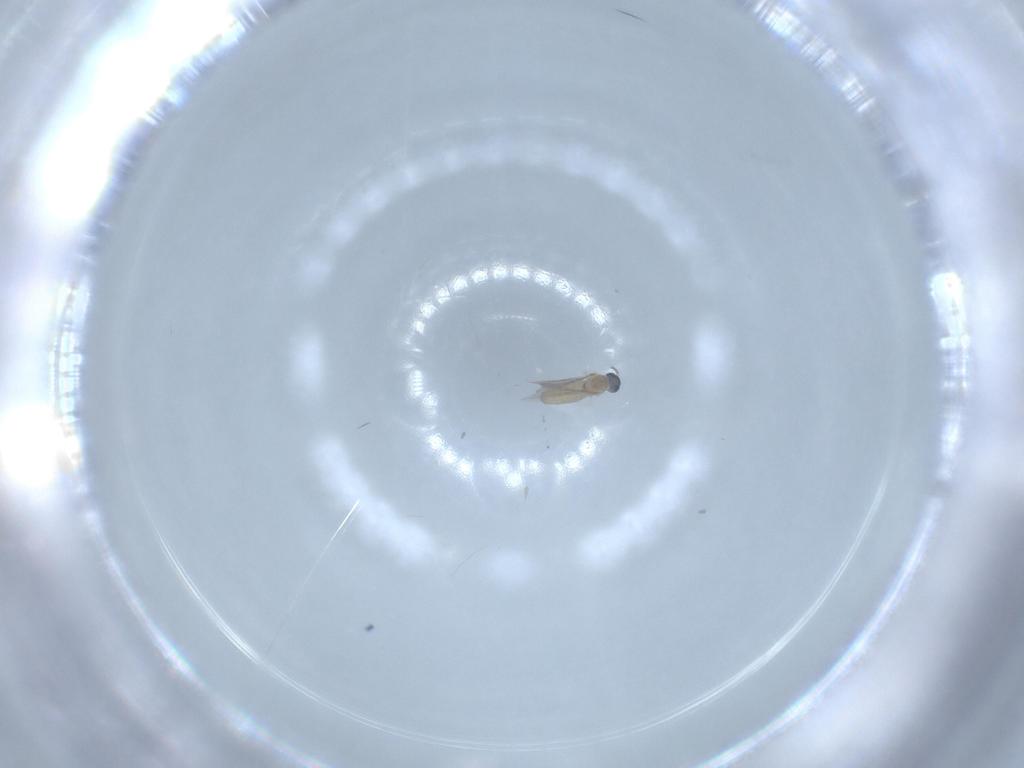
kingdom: Animalia
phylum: Arthropoda
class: Insecta
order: Diptera
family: Cecidomyiidae
